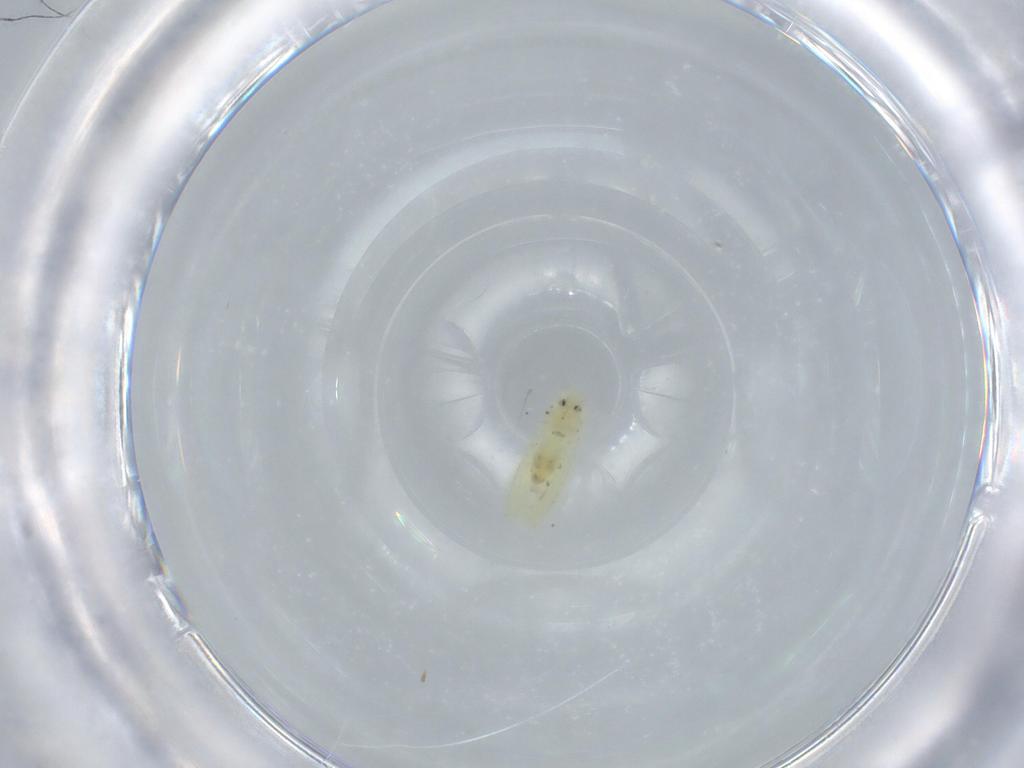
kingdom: Animalia
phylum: Arthropoda
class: Insecta
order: Hemiptera
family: Aleyrodidae
